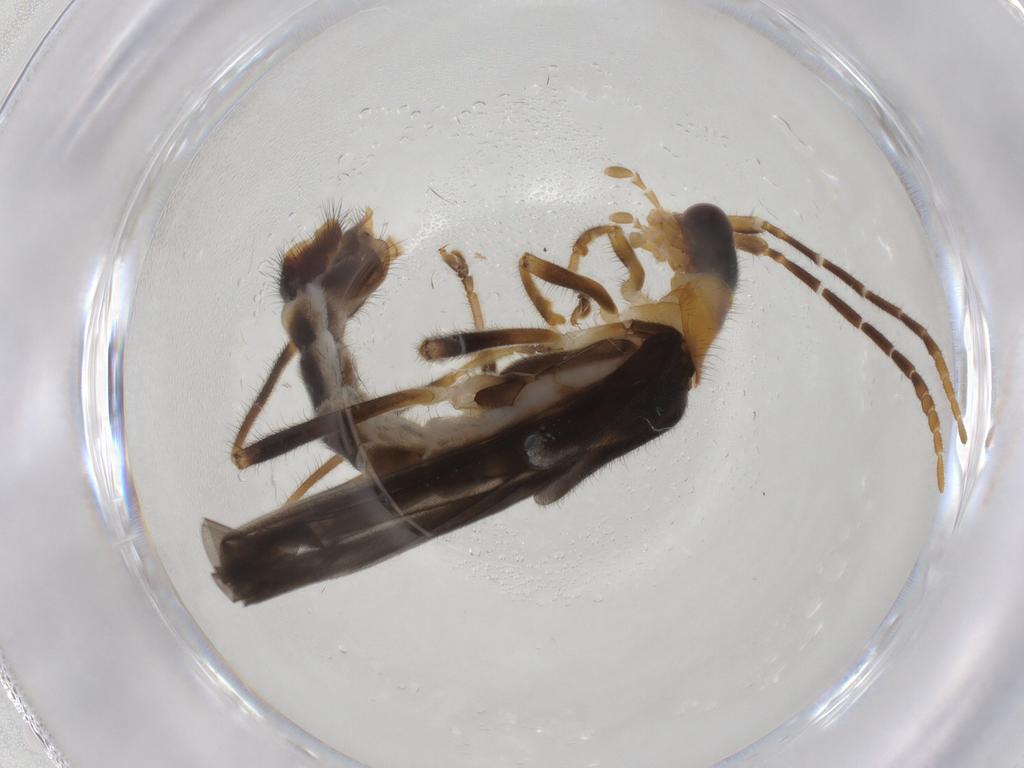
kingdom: Animalia
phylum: Arthropoda
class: Insecta
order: Coleoptera
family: Cantharidae
